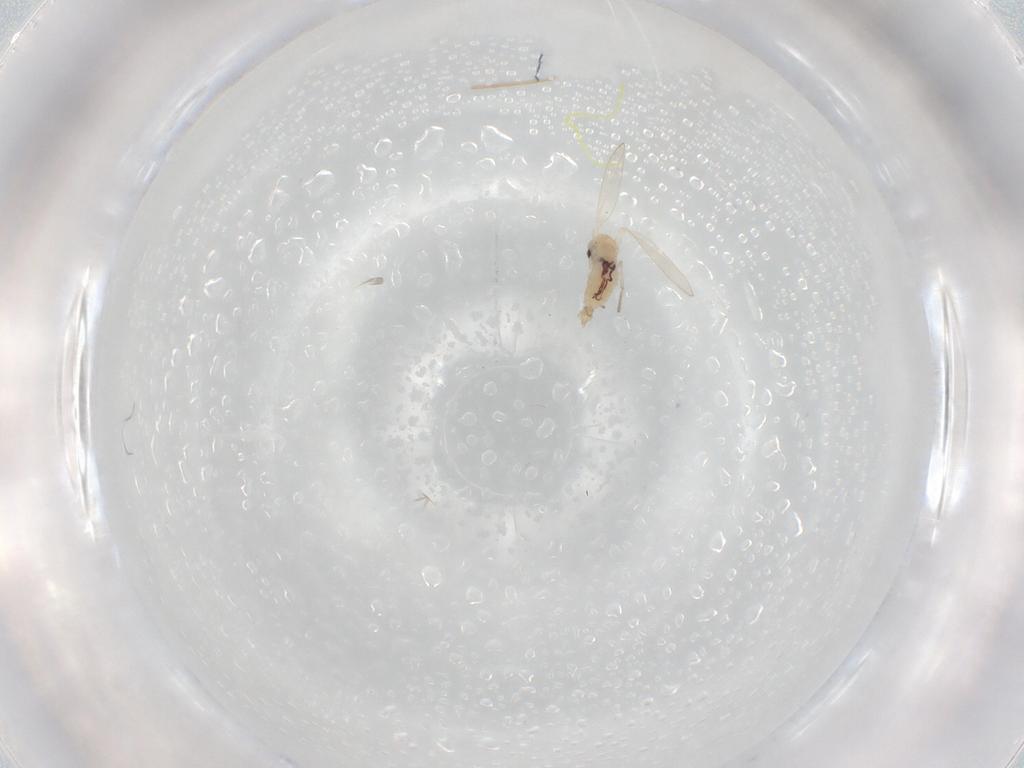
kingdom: Animalia
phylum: Arthropoda
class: Insecta
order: Diptera
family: Psychodidae
